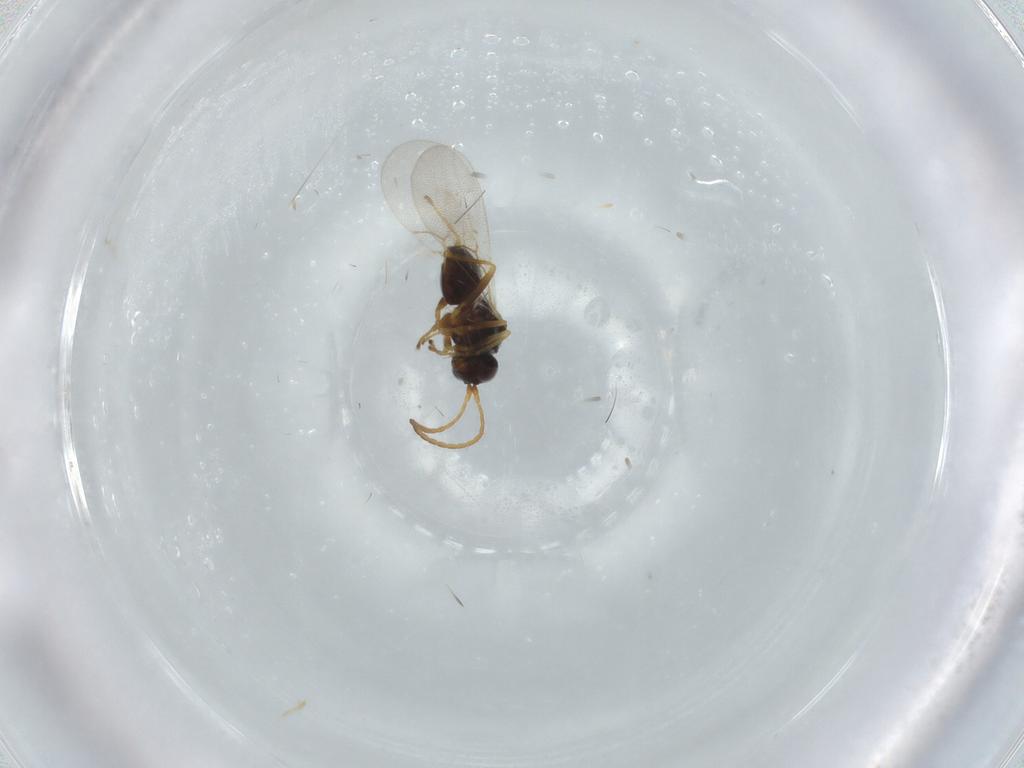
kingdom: Animalia
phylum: Arthropoda
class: Insecta
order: Hymenoptera
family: Figitidae
